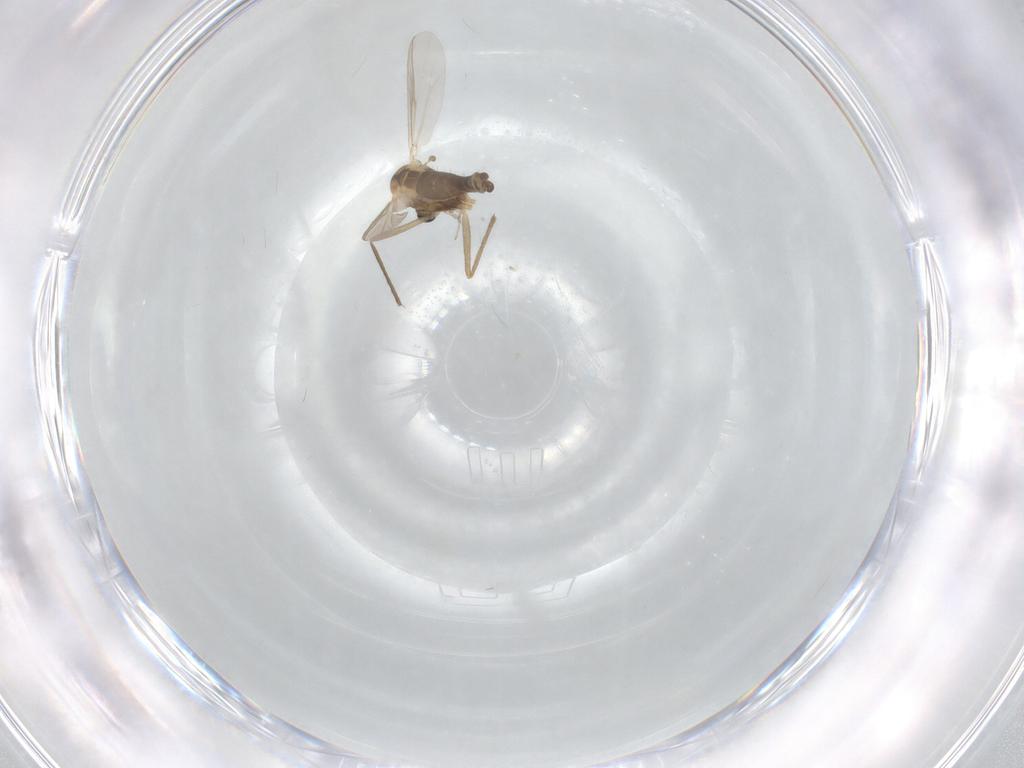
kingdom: Animalia
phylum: Arthropoda
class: Insecta
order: Diptera
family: Chironomidae
